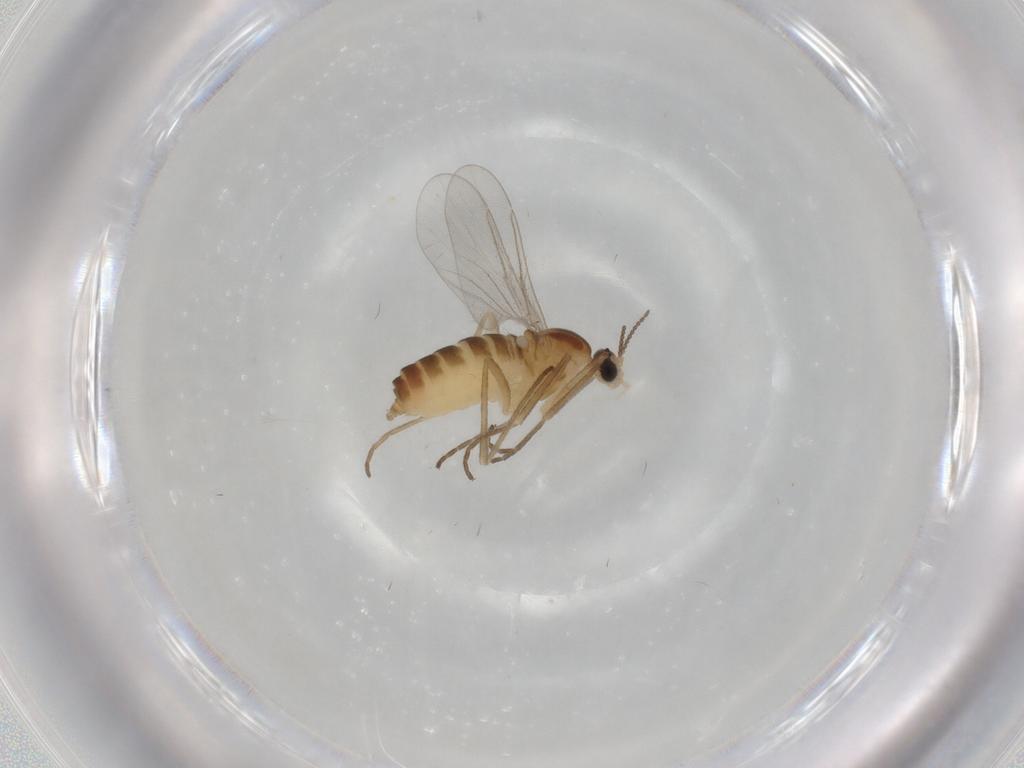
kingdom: Animalia
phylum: Arthropoda
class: Insecta
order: Diptera
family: Cecidomyiidae
